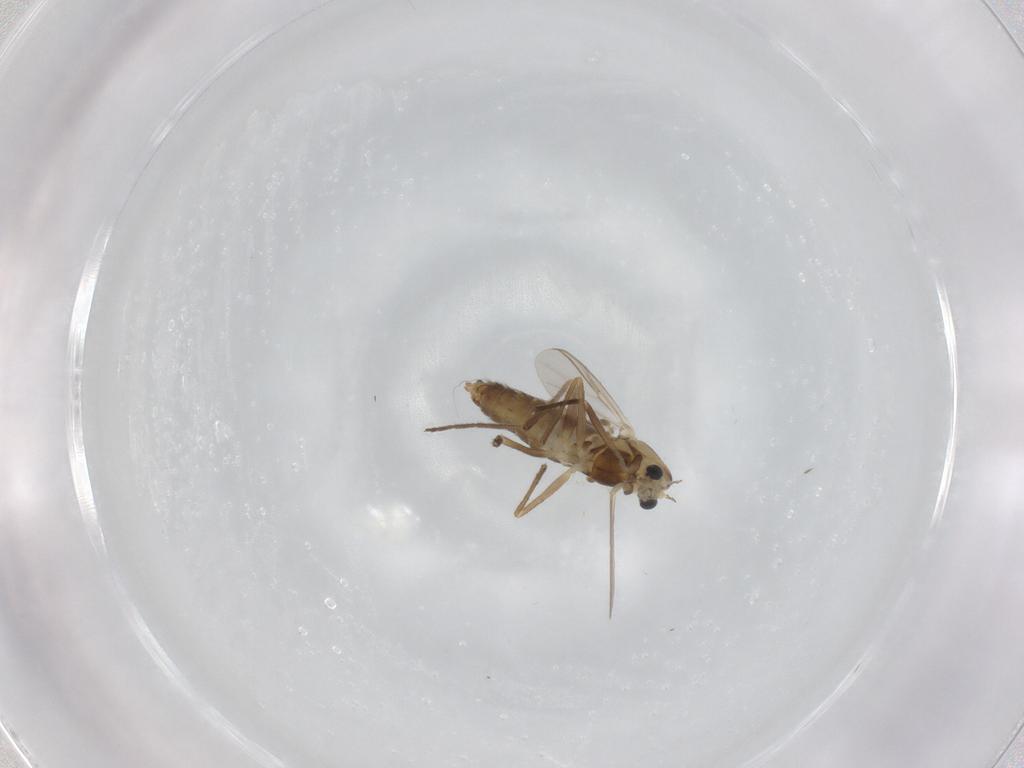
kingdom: Animalia
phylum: Arthropoda
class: Insecta
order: Diptera
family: Chironomidae
